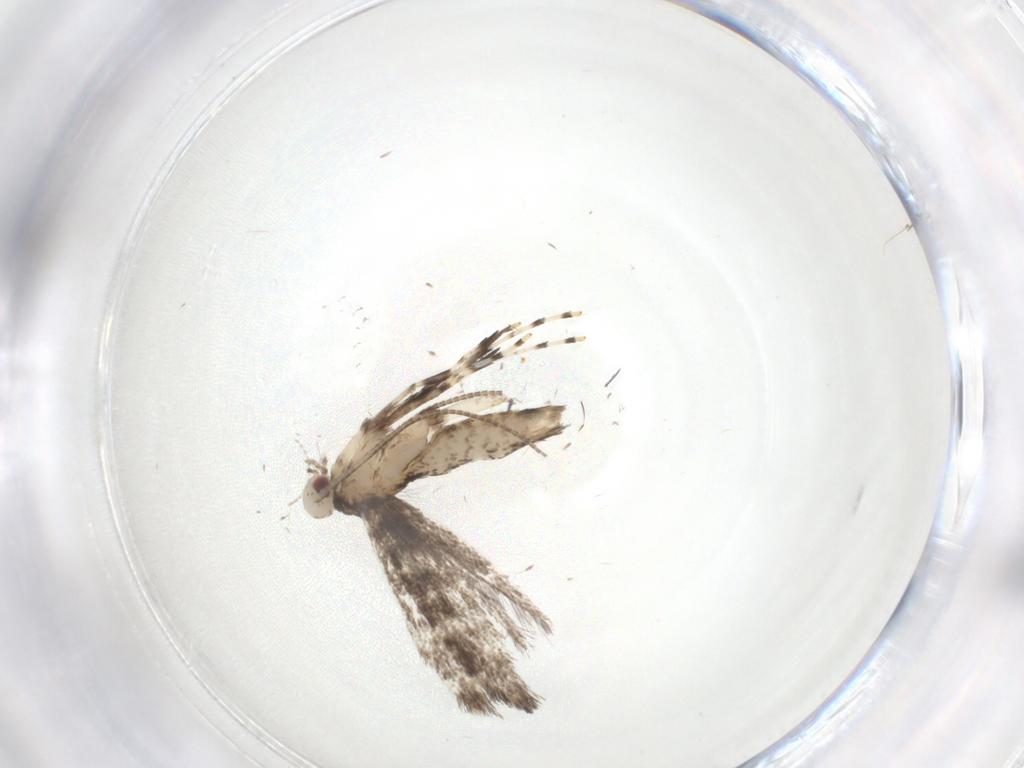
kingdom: Animalia
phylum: Arthropoda
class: Insecta
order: Lepidoptera
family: Gracillariidae
